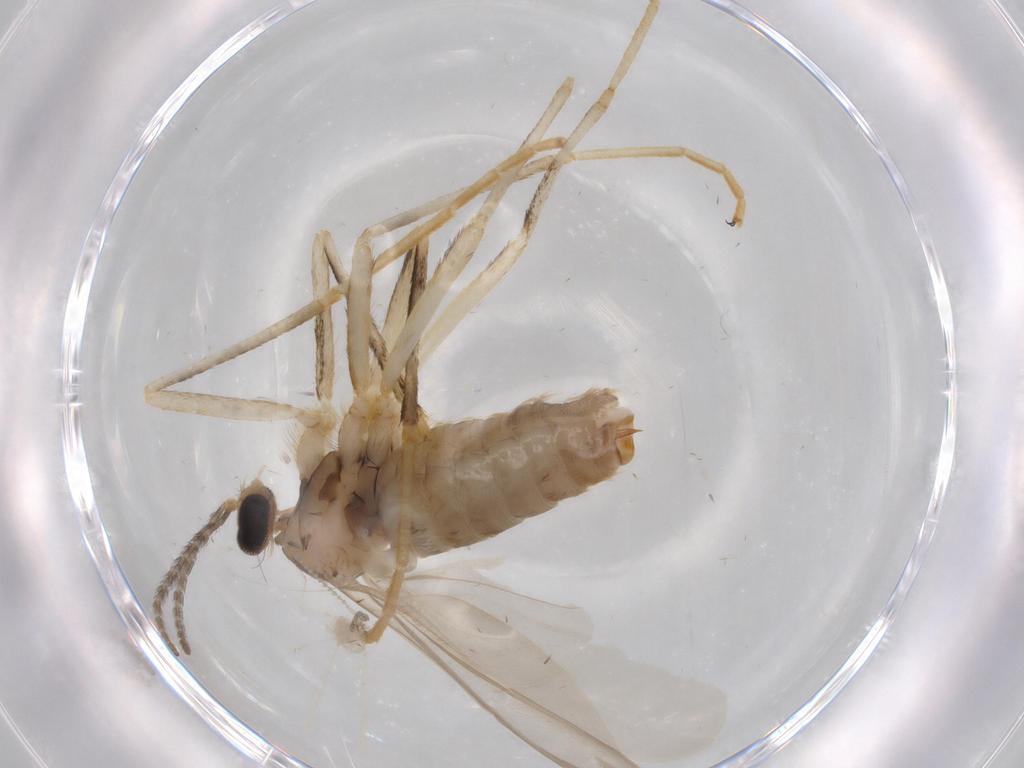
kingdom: Animalia
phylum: Arthropoda
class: Insecta
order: Diptera
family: Cecidomyiidae
